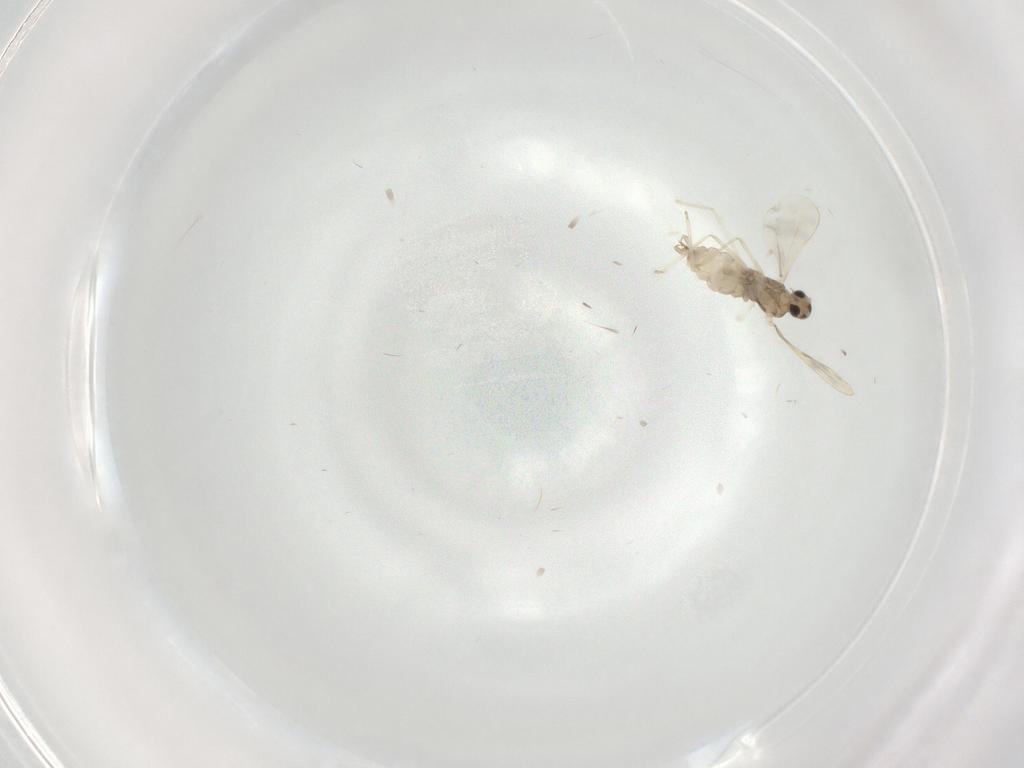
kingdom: Animalia
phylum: Arthropoda
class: Insecta
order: Diptera
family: Cecidomyiidae
